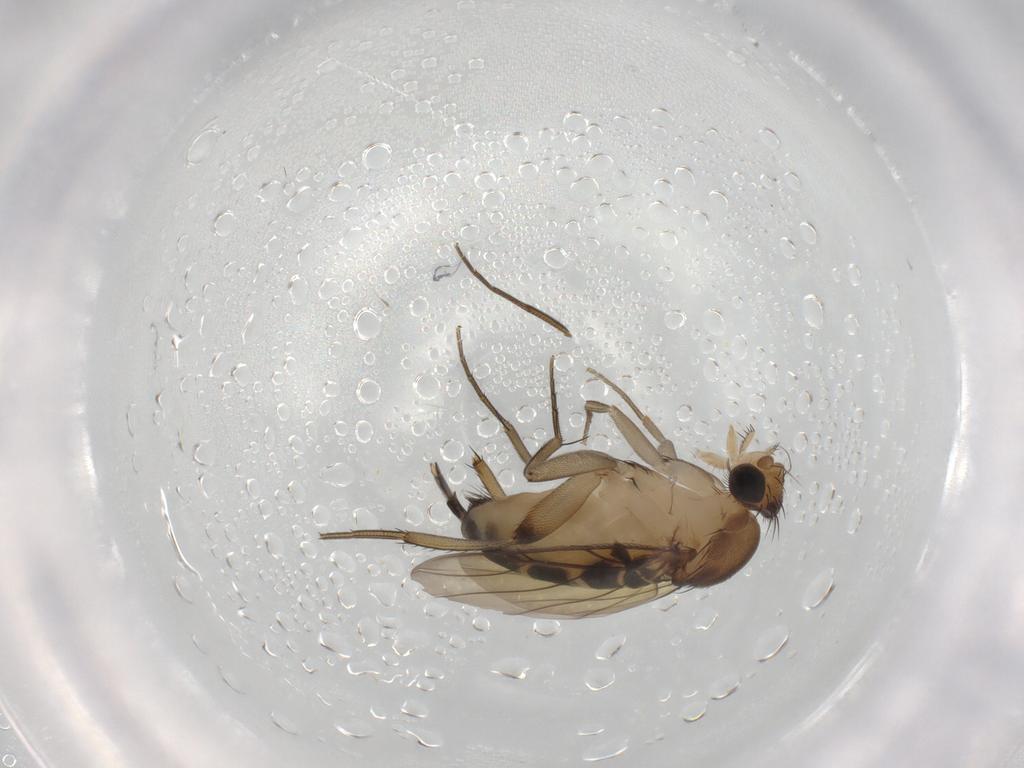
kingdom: Animalia
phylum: Arthropoda
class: Insecta
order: Diptera
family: Phoridae
